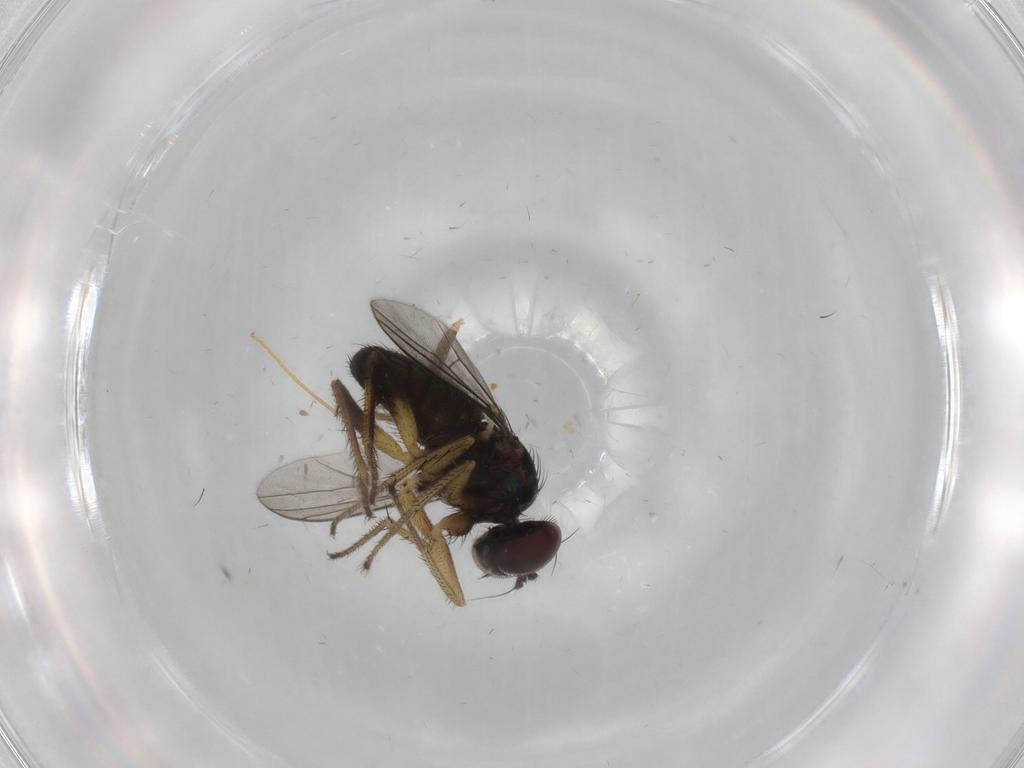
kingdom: Animalia
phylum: Arthropoda
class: Insecta
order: Diptera
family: Dolichopodidae
